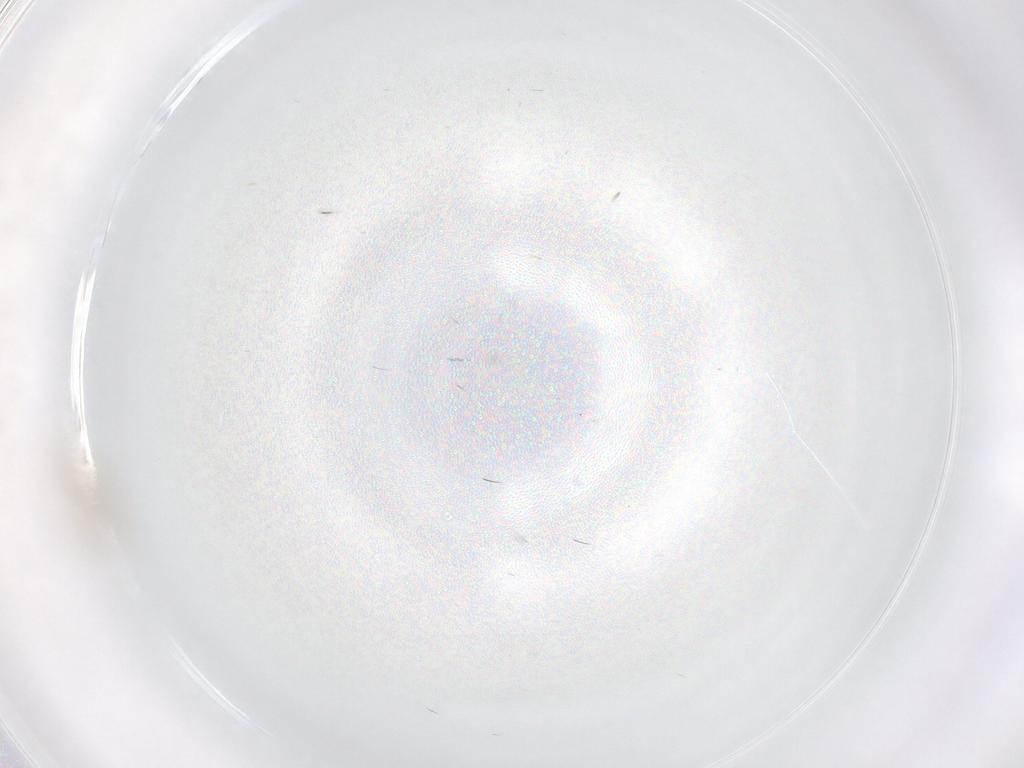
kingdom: Animalia
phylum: Arthropoda
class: Insecta
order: Diptera
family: Chironomidae
